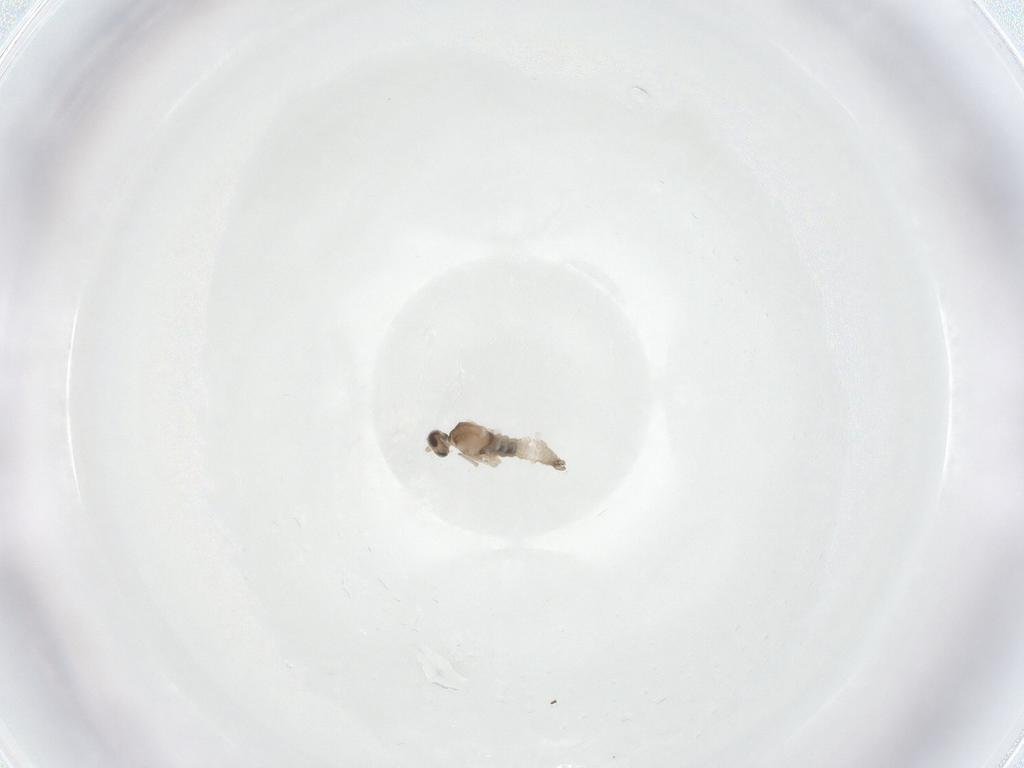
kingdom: Animalia
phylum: Arthropoda
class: Insecta
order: Diptera
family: Cecidomyiidae
